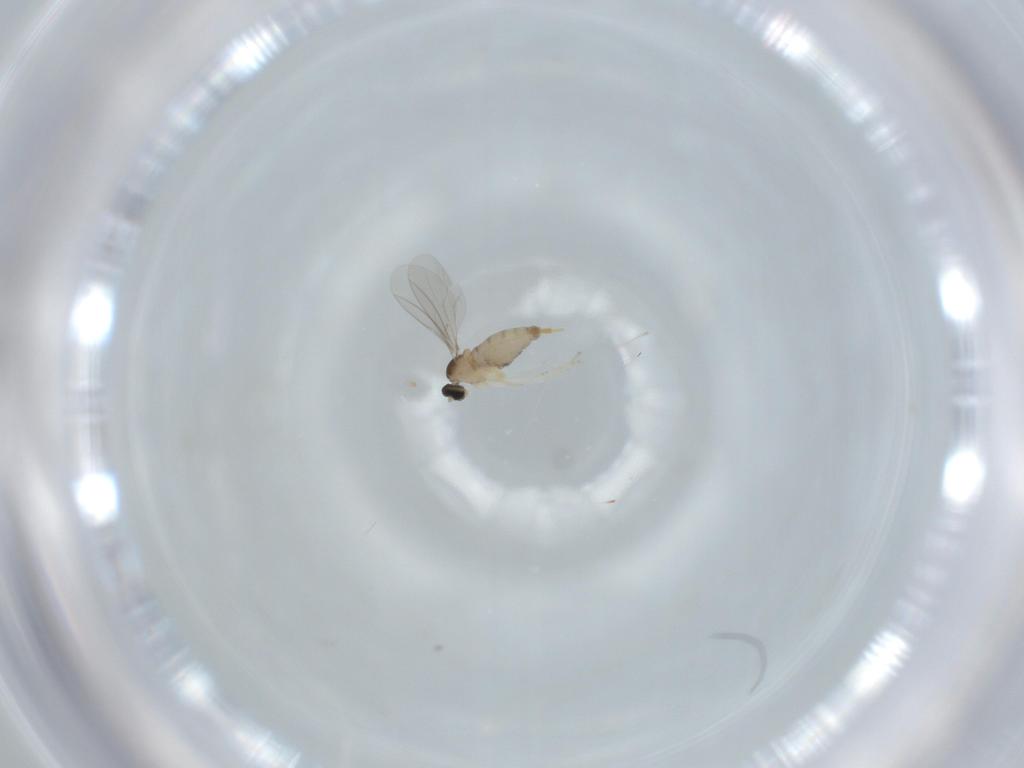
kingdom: Animalia
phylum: Arthropoda
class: Insecta
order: Diptera
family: Cecidomyiidae
